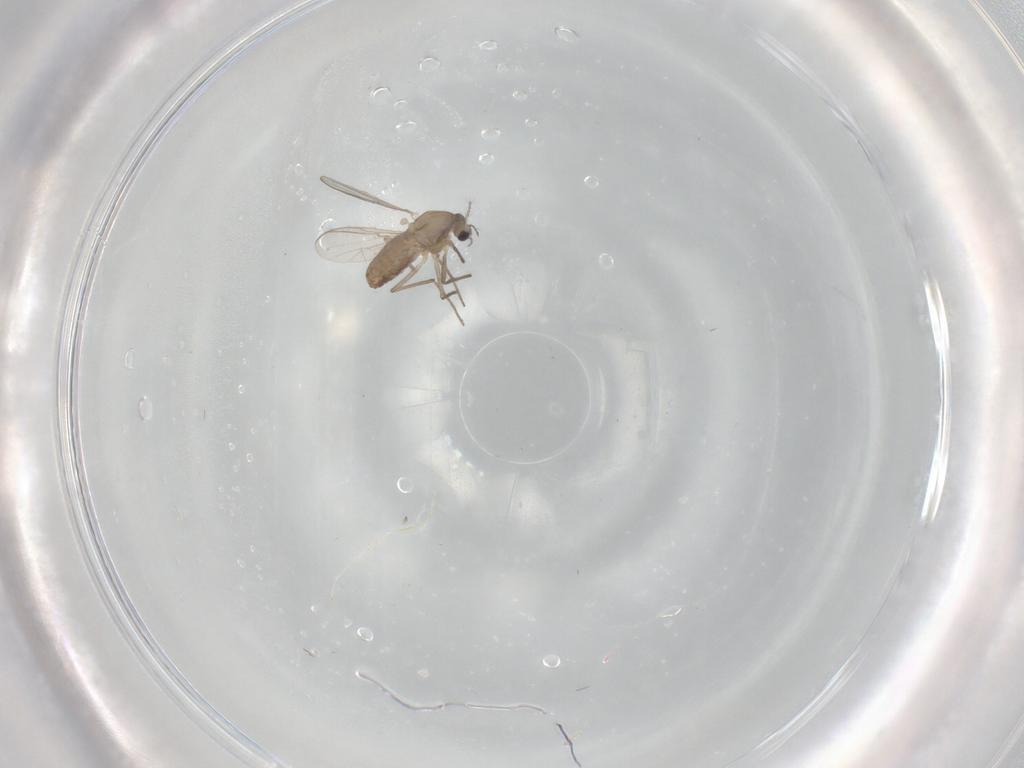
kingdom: Animalia
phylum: Arthropoda
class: Insecta
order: Diptera
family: Chironomidae
